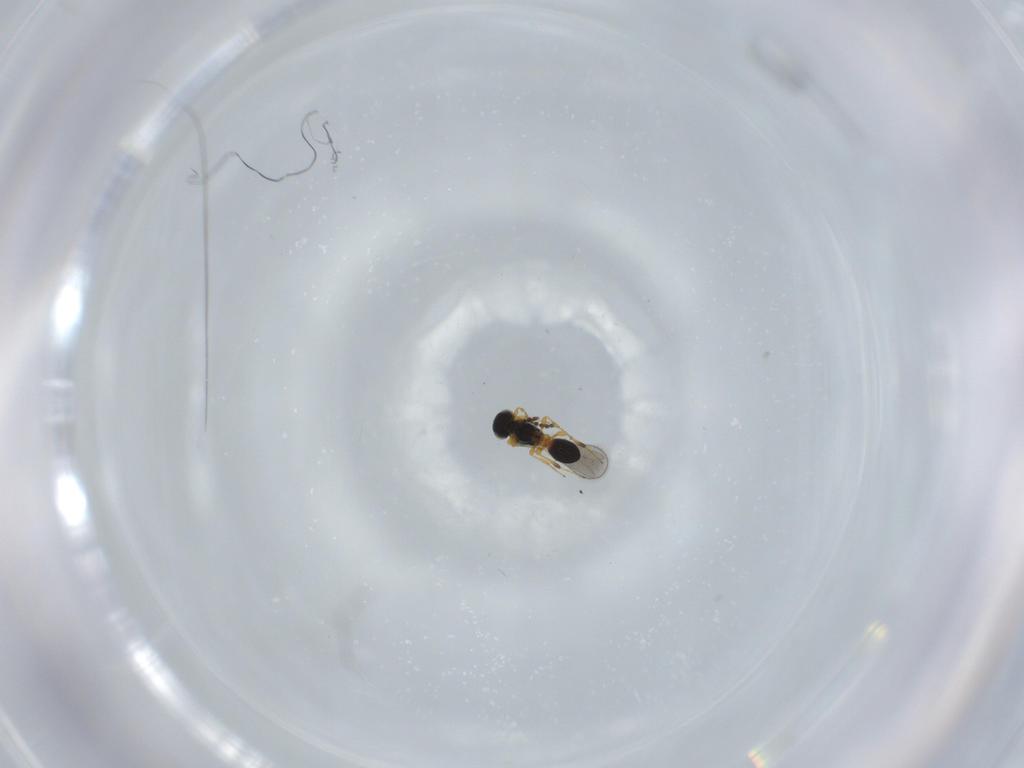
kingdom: Animalia
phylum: Arthropoda
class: Insecta
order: Hymenoptera
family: Platygastridae
